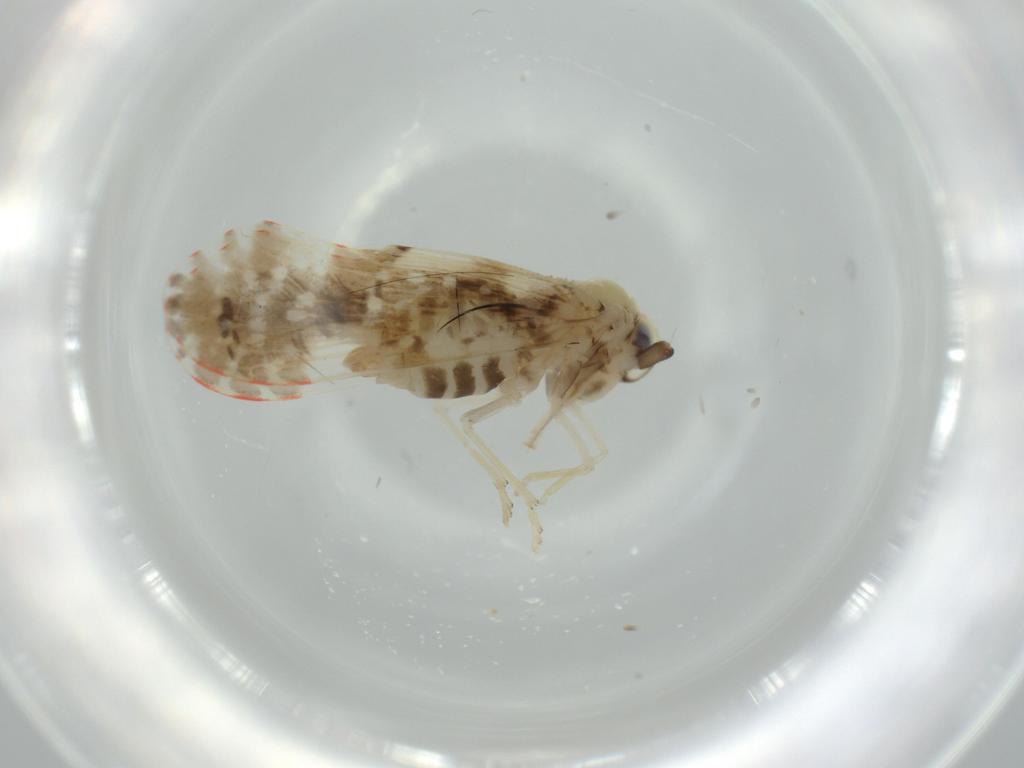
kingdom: Animalia
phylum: Arthropoda
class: Insecta
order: Hemiptera
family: Derbidae
